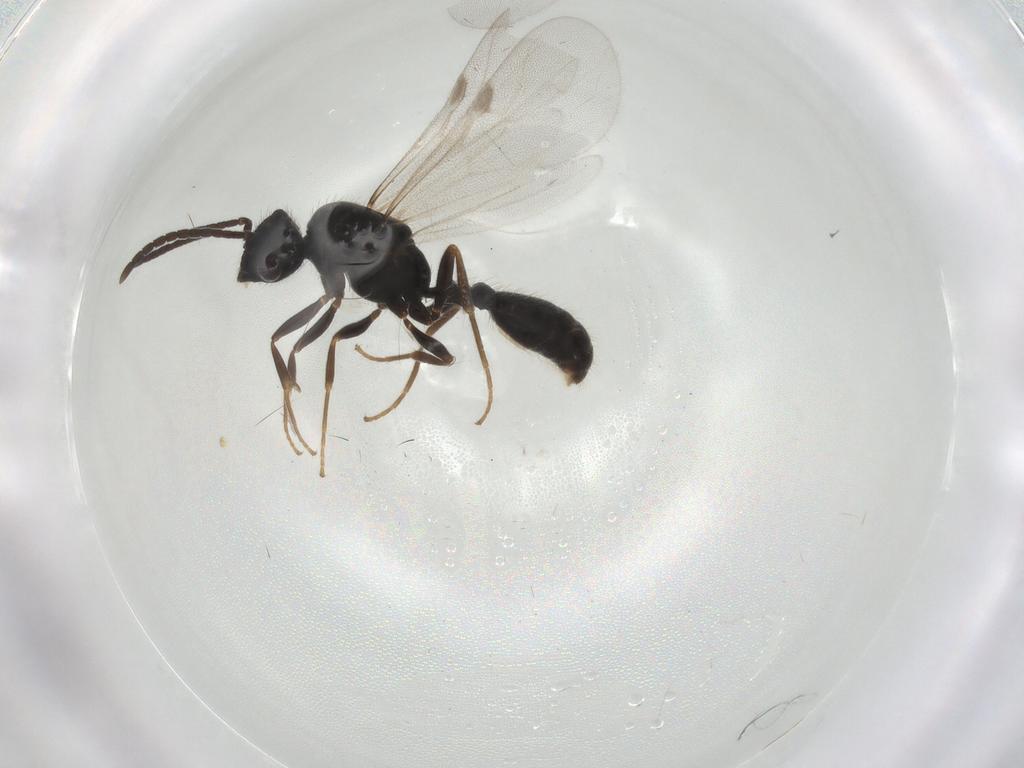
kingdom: Animalia
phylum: Arthropoda
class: Insecta
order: Hymenoptera
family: Formicidae
